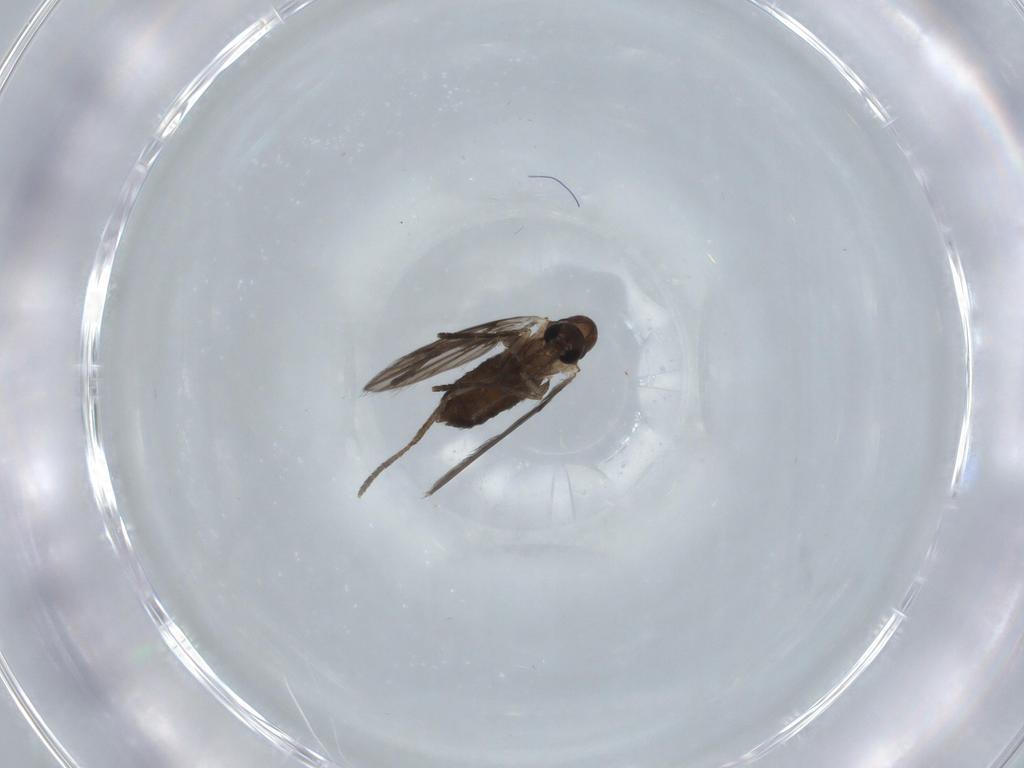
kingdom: Animalia
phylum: Arthropoda
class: Insecta
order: Diptera
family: Psychodidae
